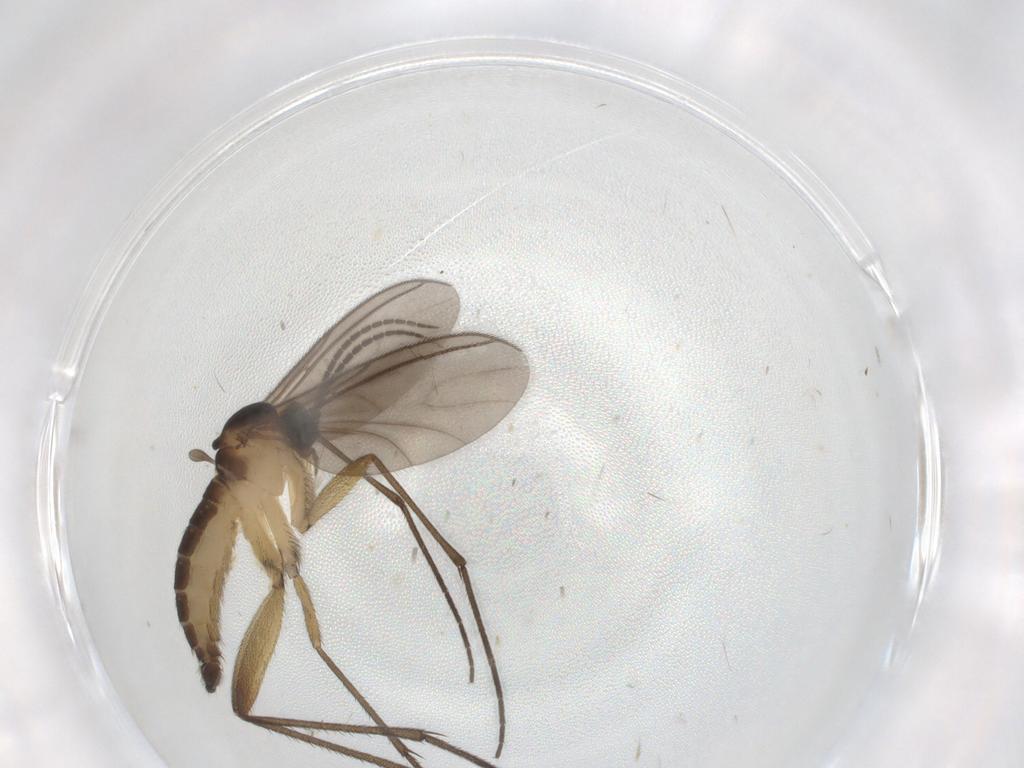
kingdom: Animalia
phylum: Arthropoda
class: Insecta
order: Diptera
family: Sciaridae
